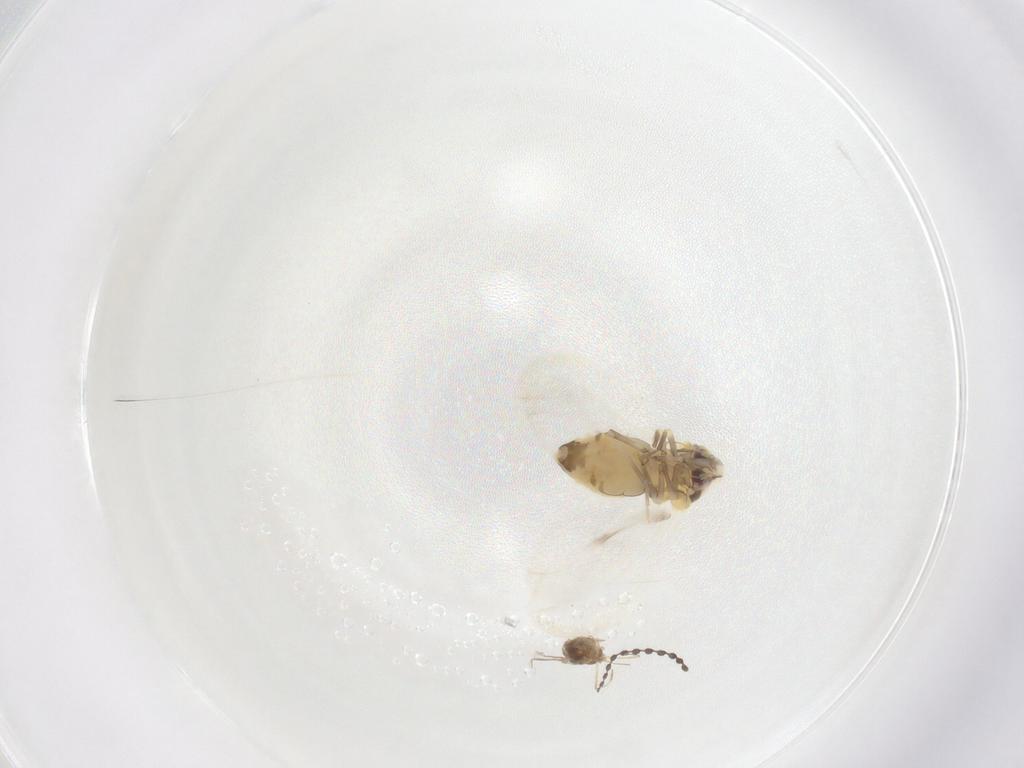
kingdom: Animalia
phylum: Arthropoda
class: Insecta
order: Hemiptera
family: Aleyrodidae
